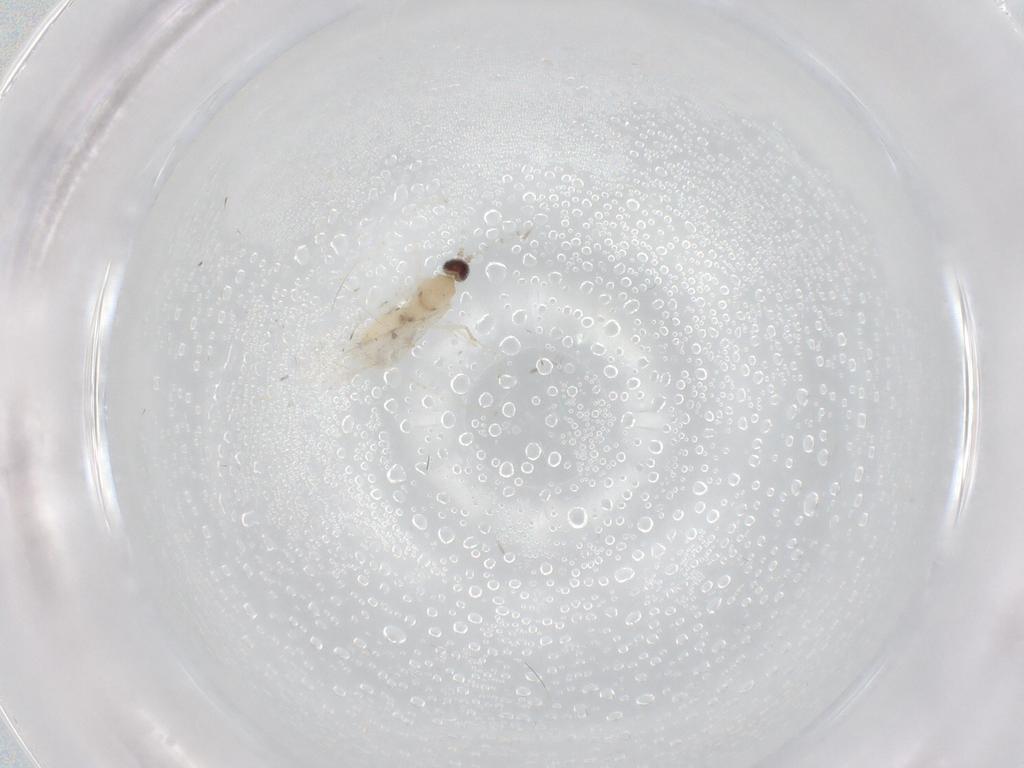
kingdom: Animalia
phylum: Arthropoda
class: Insecta
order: Diptera
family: Cecidomyiidae
